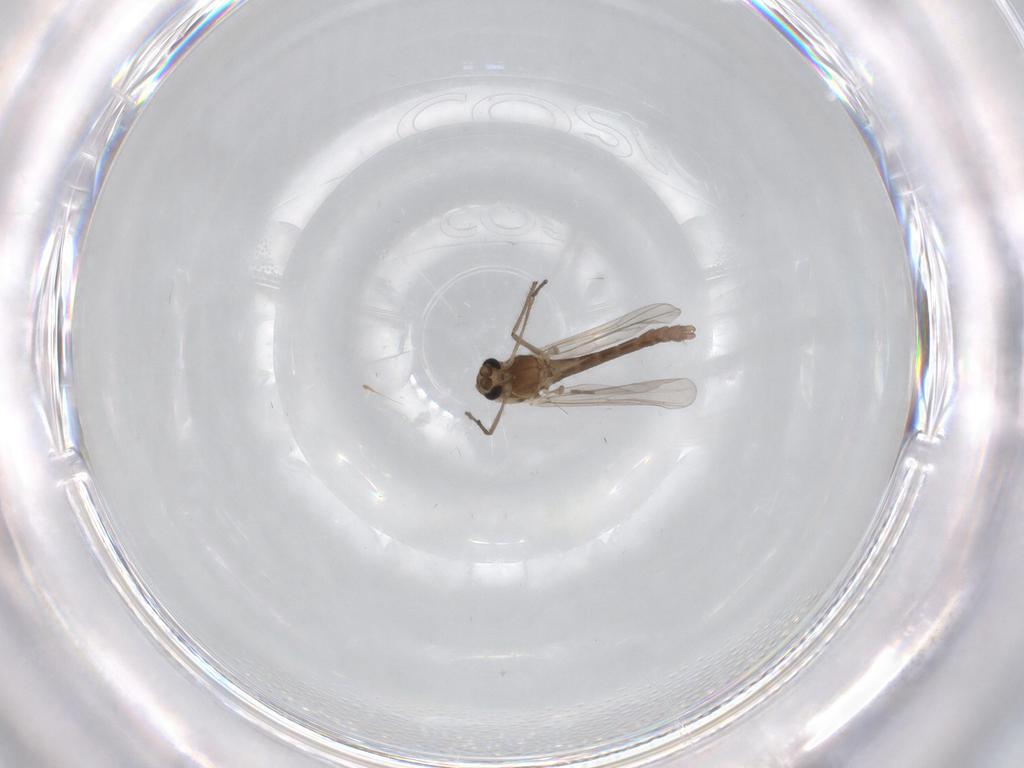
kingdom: Animalia
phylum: Arthropoda
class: Insecta
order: Diptera
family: Chironomidae
